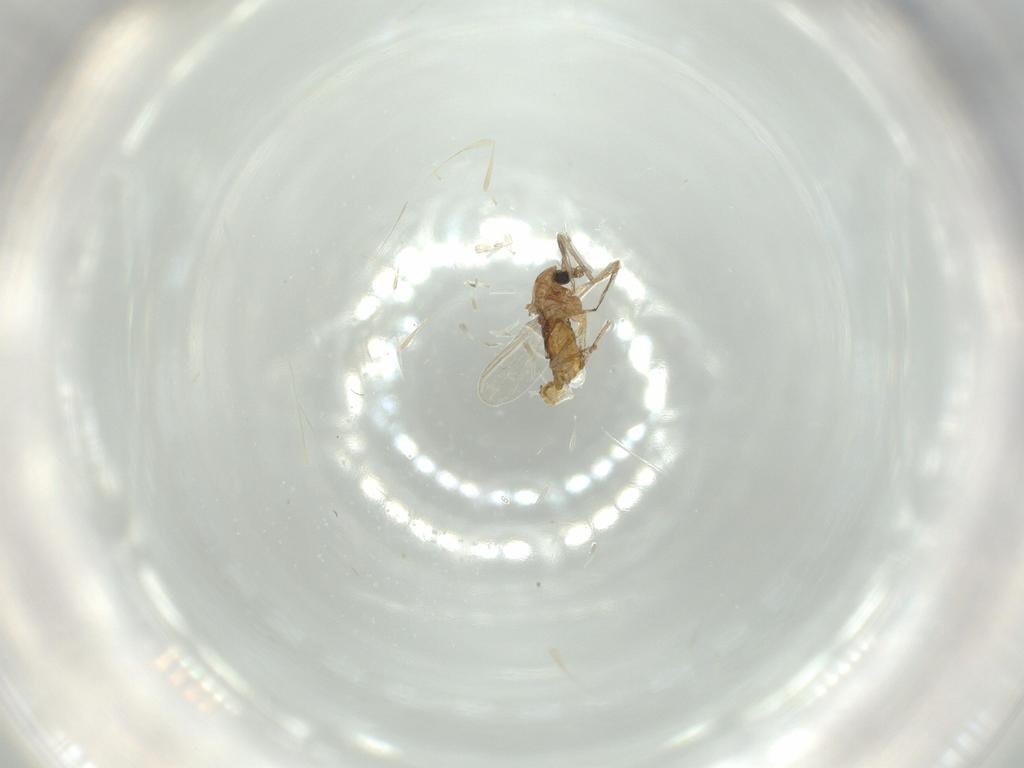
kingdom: Animalia
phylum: Arthropoda
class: Insecta
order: Diptera
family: Chironomidae
